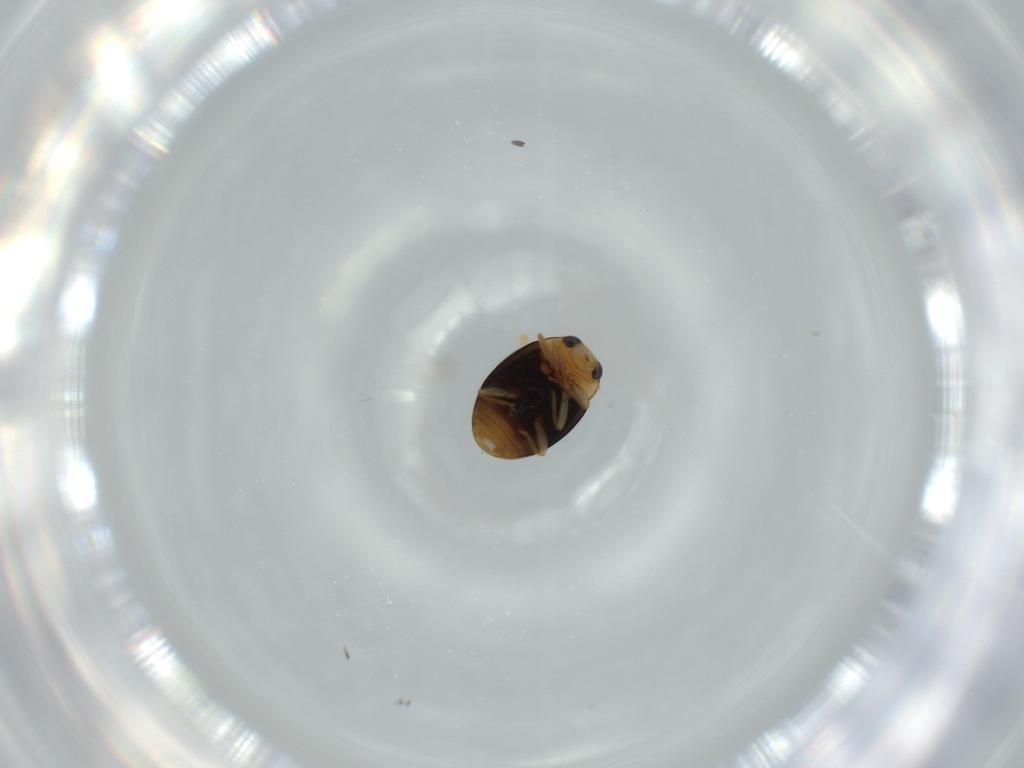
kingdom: Animalia
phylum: Arthropoda
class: Insecta
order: Coleoptera
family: Coccinellidae
